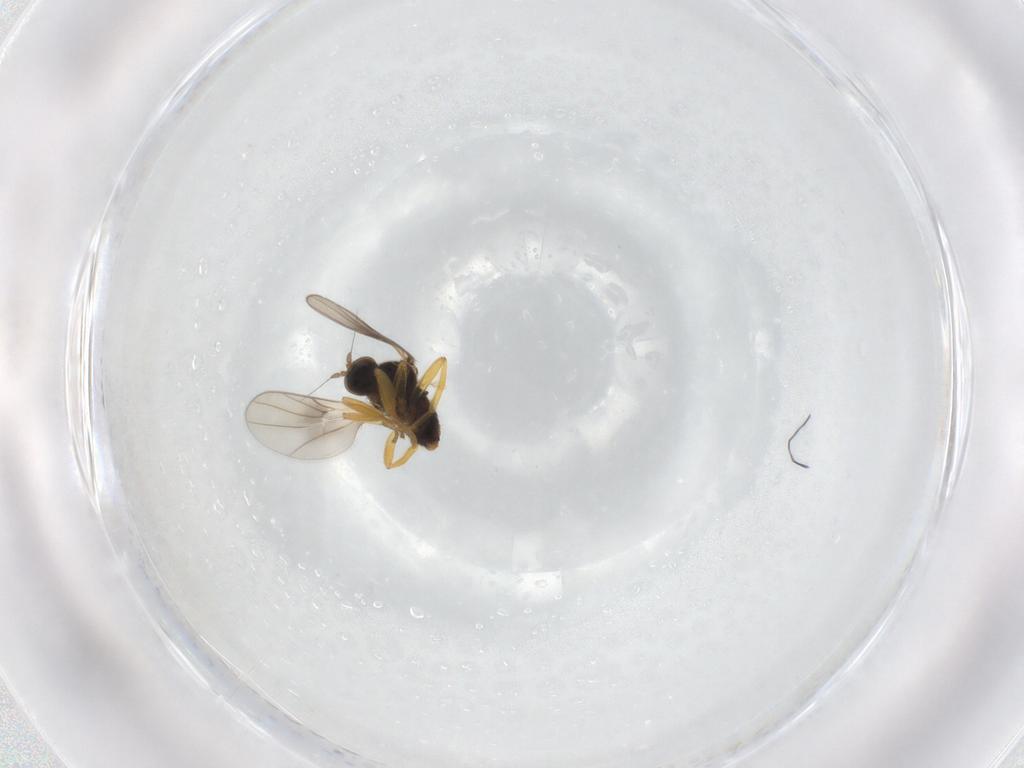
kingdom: Animalia
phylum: Arthropoda
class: Insecta
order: Diptera
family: Hybotidae
